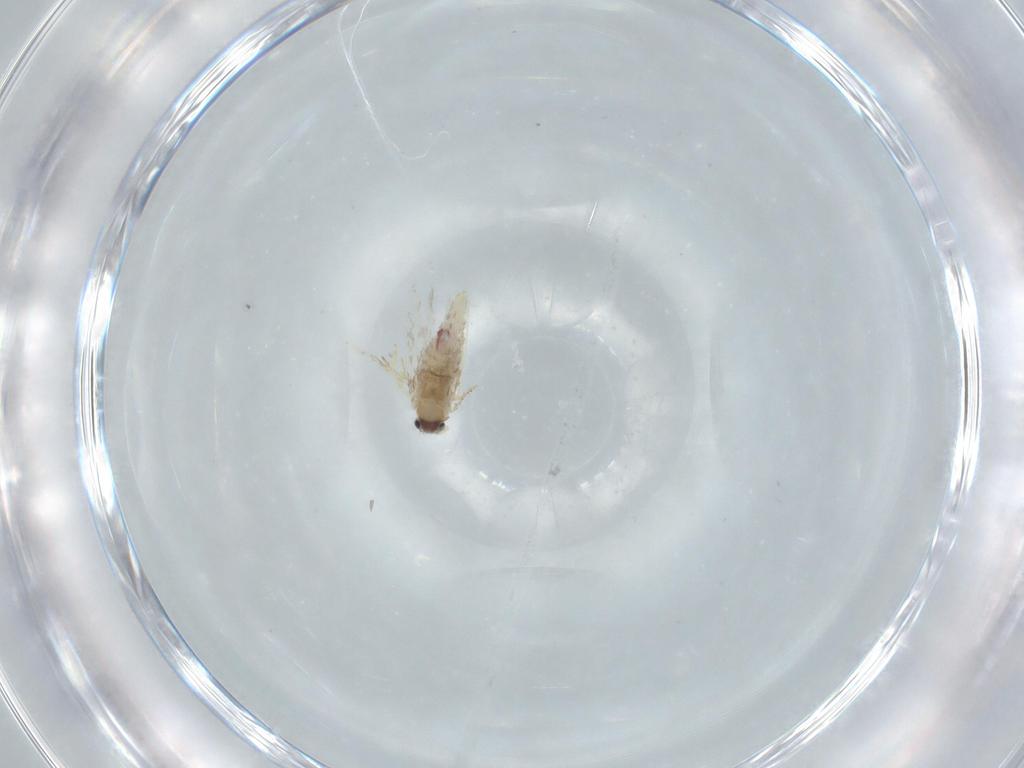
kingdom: Animalia
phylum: Arthropoda
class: Insecta
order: Lepidoptera
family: Nepticulidae
